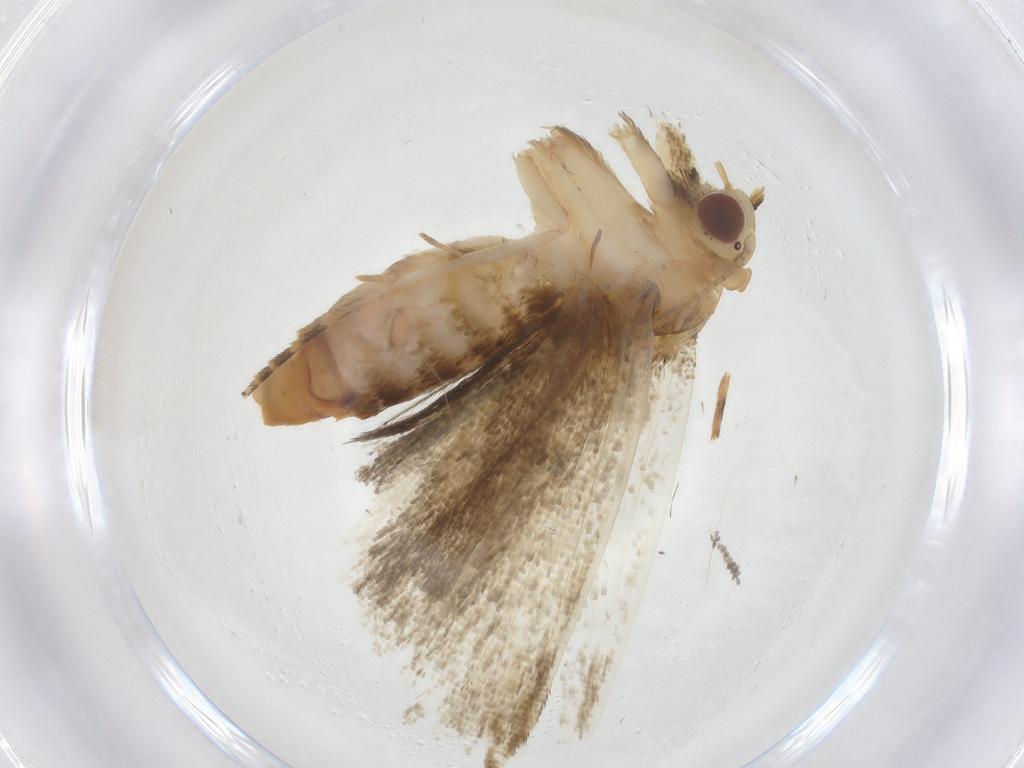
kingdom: Animalia
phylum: Arthropoda
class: Insecta
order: Lepidoptera
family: Erebidae
